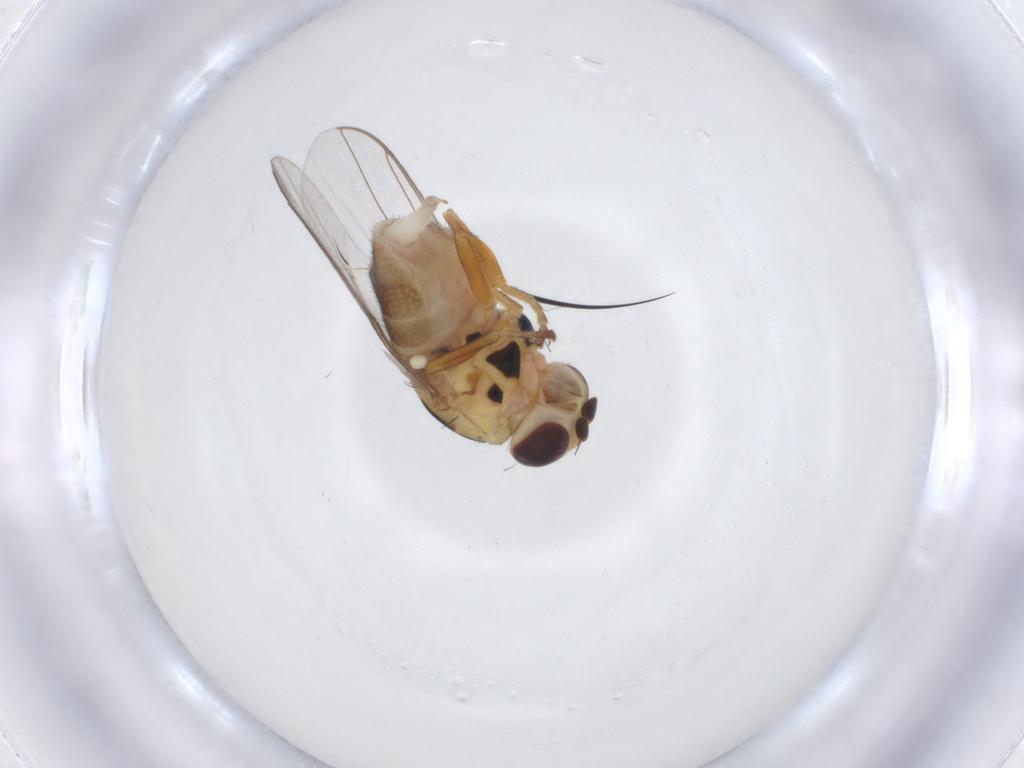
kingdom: Animalia
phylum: Arthropoda
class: Insecta
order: Diptera
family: Chloropidae
